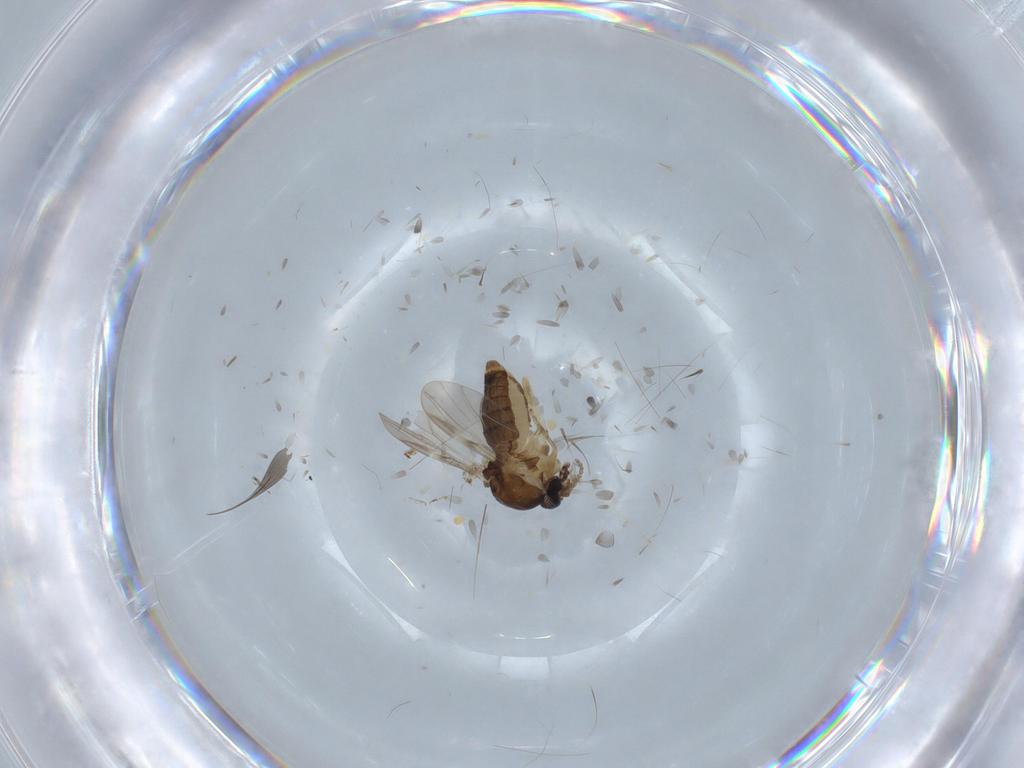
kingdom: Animalia
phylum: Arthropoda
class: Insecta
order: Diptera
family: Ceratopogonidae
